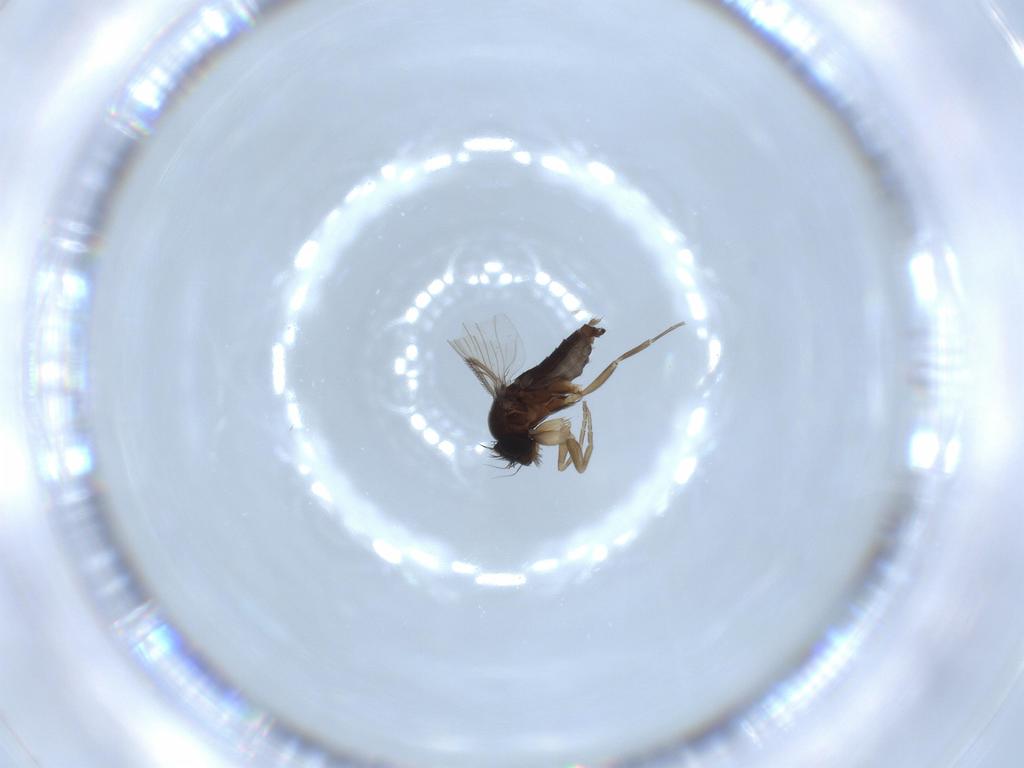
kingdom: Animalia
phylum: Arthropoda
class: Insecta
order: Diptera
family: Phoridae
